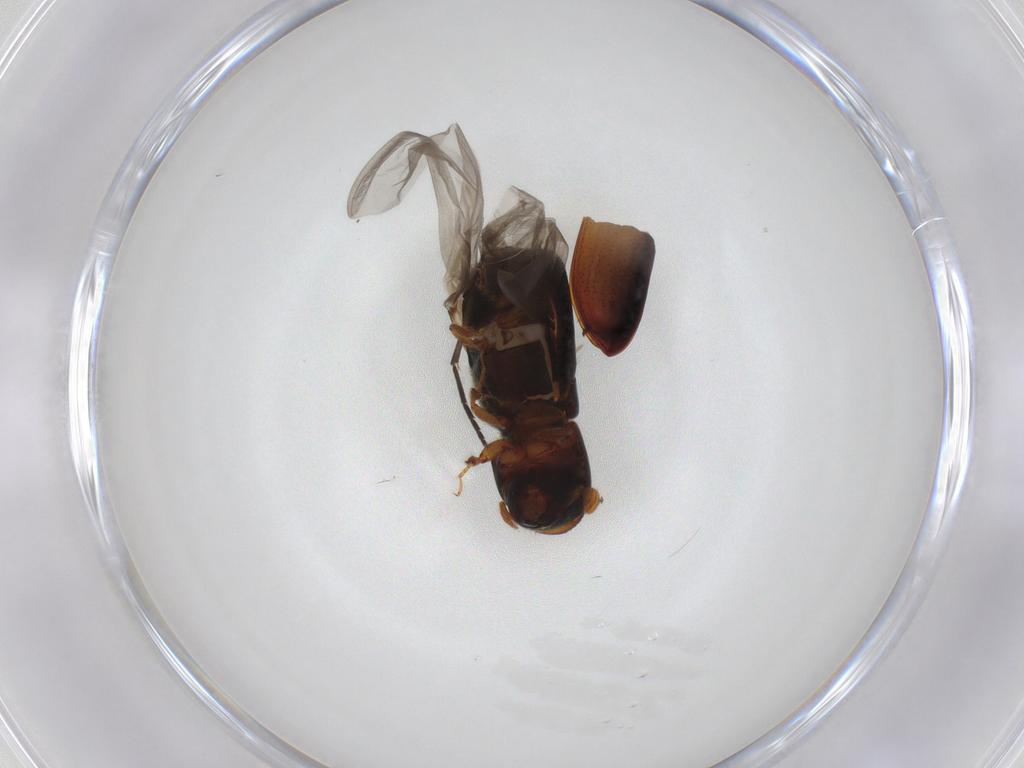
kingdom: Animalia
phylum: Arthropoda
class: Insecta
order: Coleoptera
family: Curculionidae
